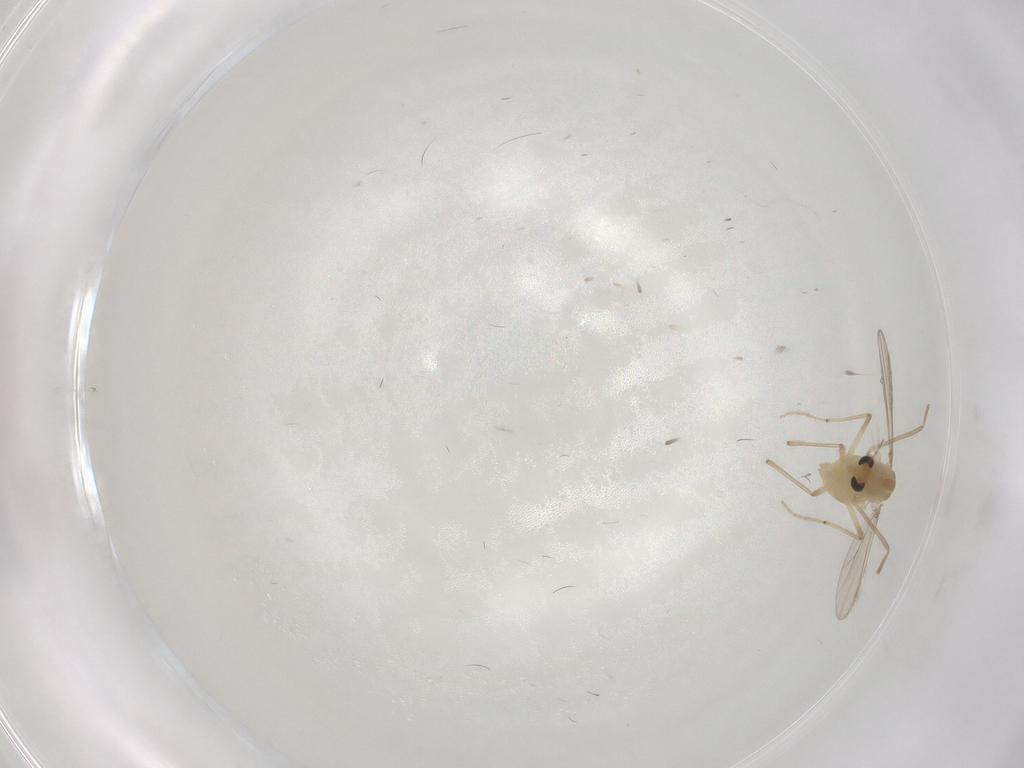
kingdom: Animalia
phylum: Arthropoda
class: Insecta
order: Diptera
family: Chironomidae
